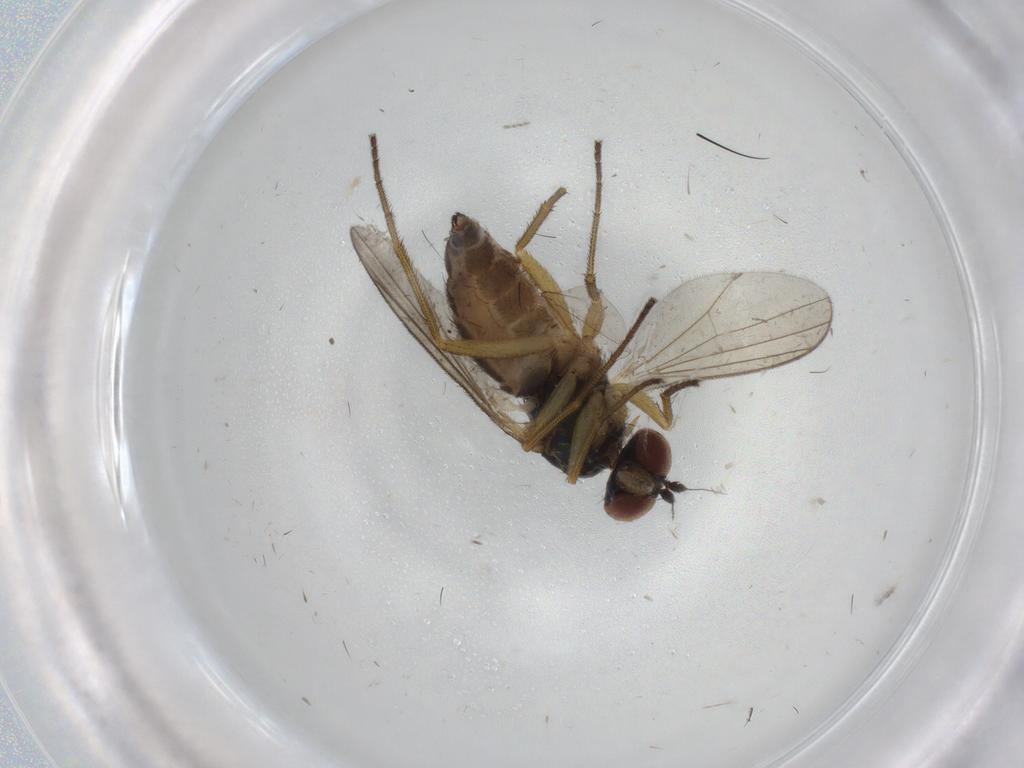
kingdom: Animalia
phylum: Arthropoda
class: Insecta
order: Diptera
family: Dolichopodidae
